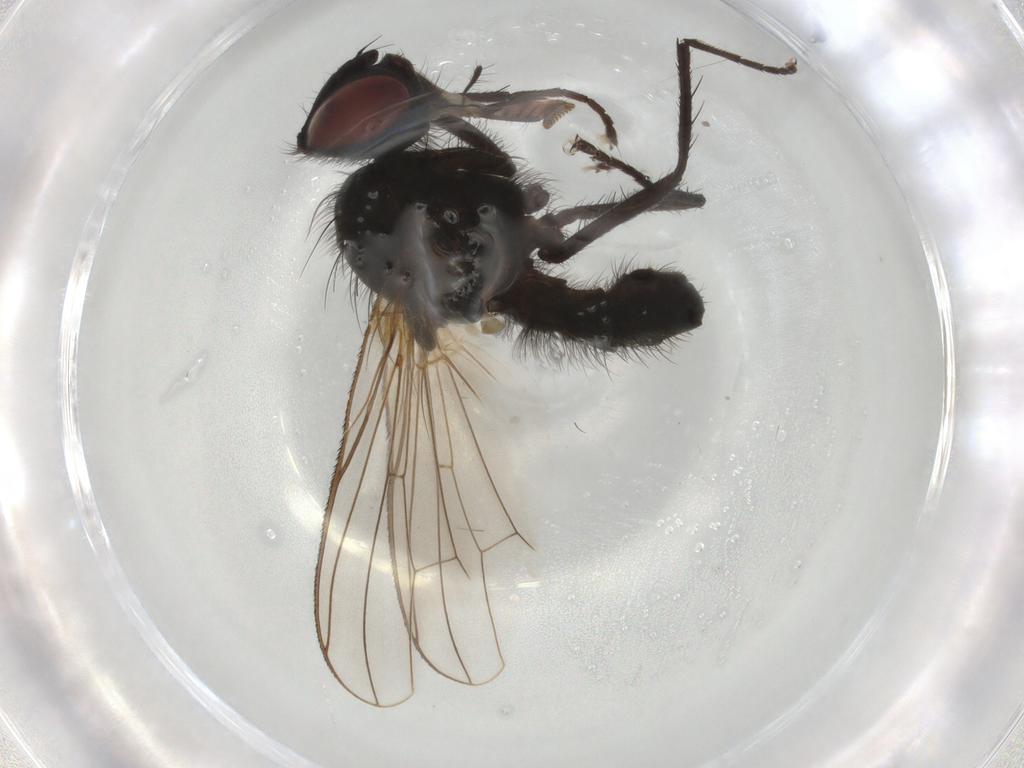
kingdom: Animalia
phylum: Arthropoda
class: Insecta
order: Diptera
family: Anthomyiidae
